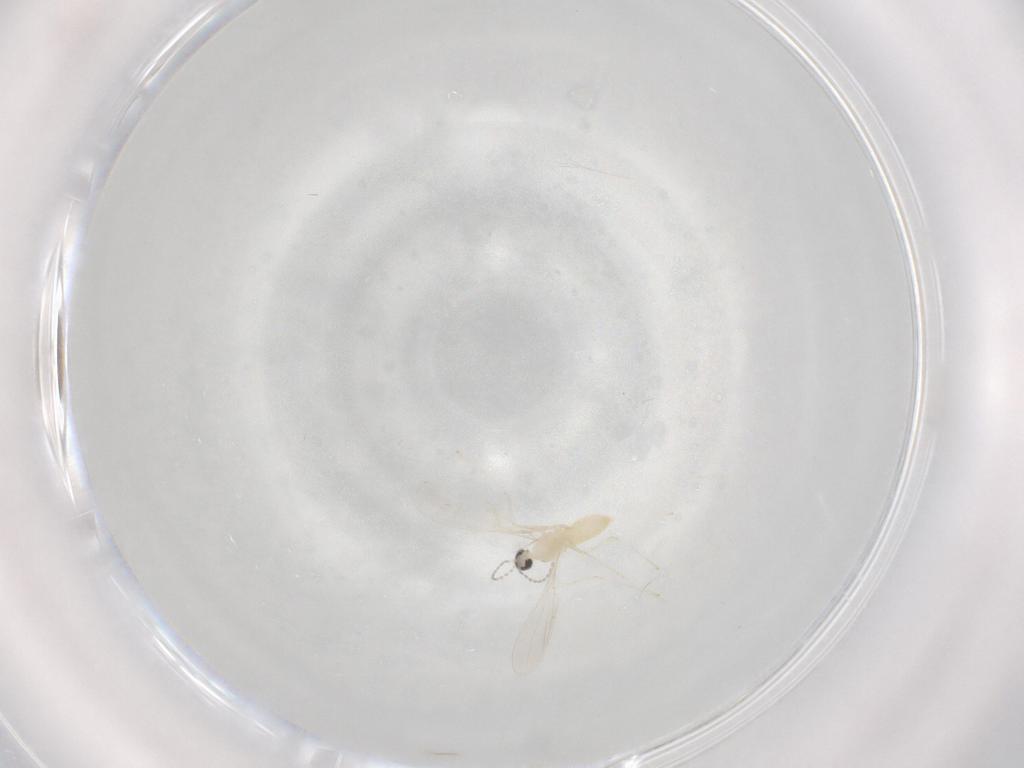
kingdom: Animalia
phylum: Arthropoda
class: Insecta
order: Diptera
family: Cecidomyiidae
